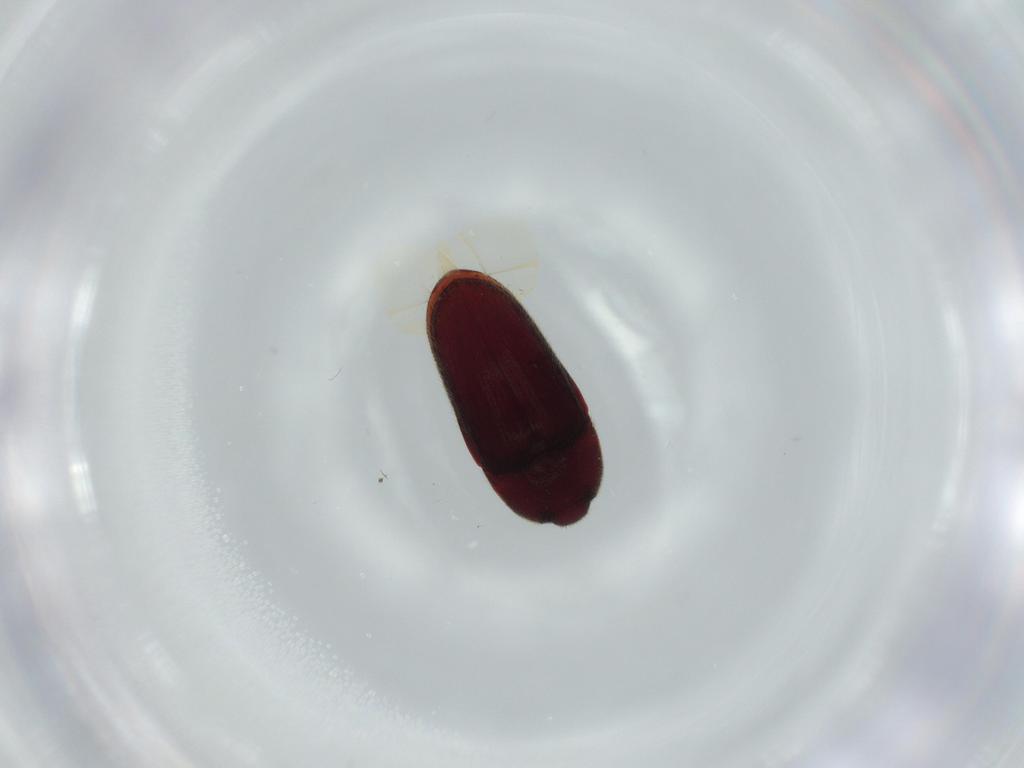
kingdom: Animalia
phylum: Arthropoda
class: Insecta
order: Coleoptera
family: Throscidae
